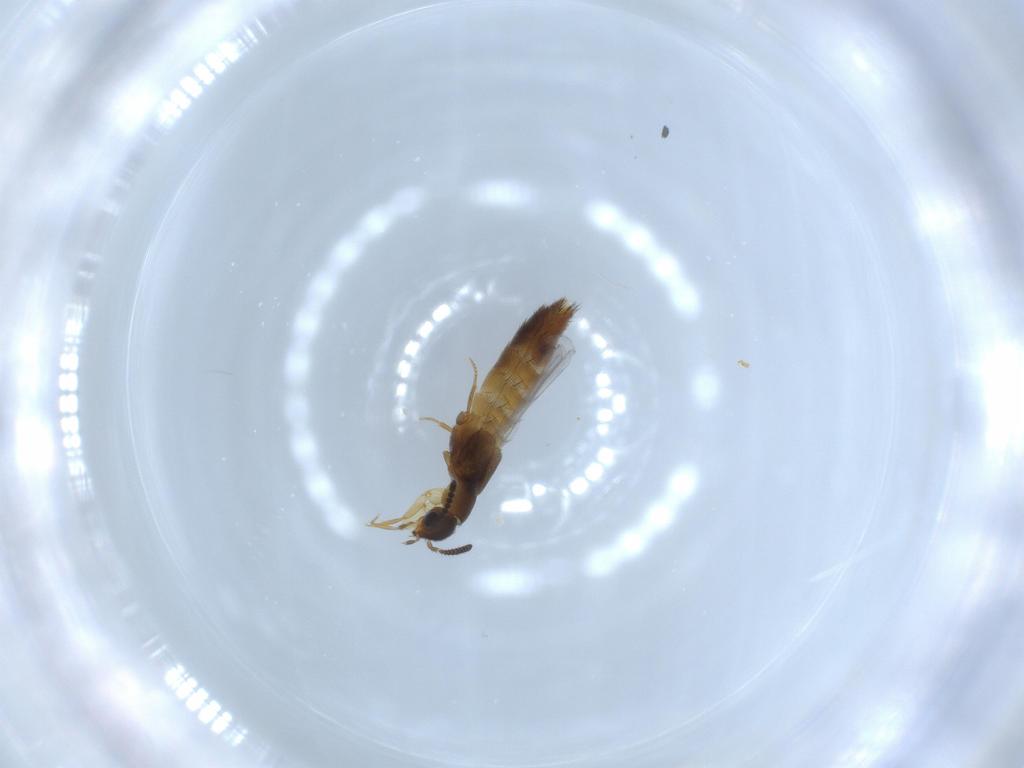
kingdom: Animalia
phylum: Arthropoda
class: Insecta
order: Coleoptera
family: Staphylinidae
